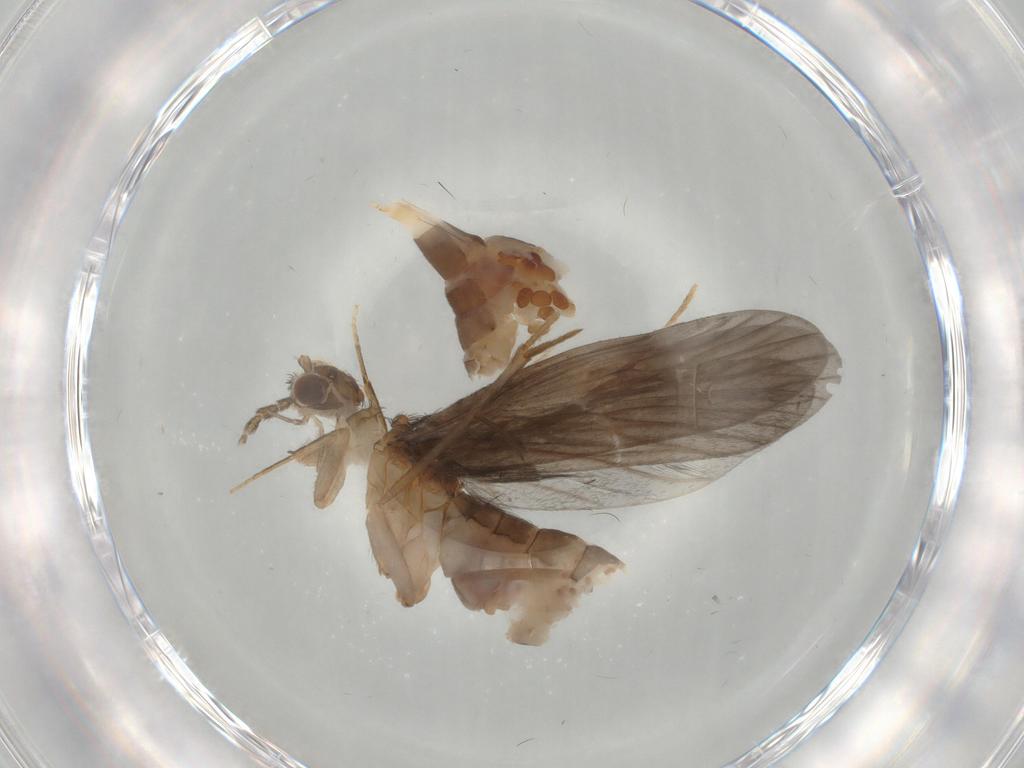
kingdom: Animalia
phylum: Arthropoda
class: Insecta
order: Trichoptera
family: Philopotamidae
